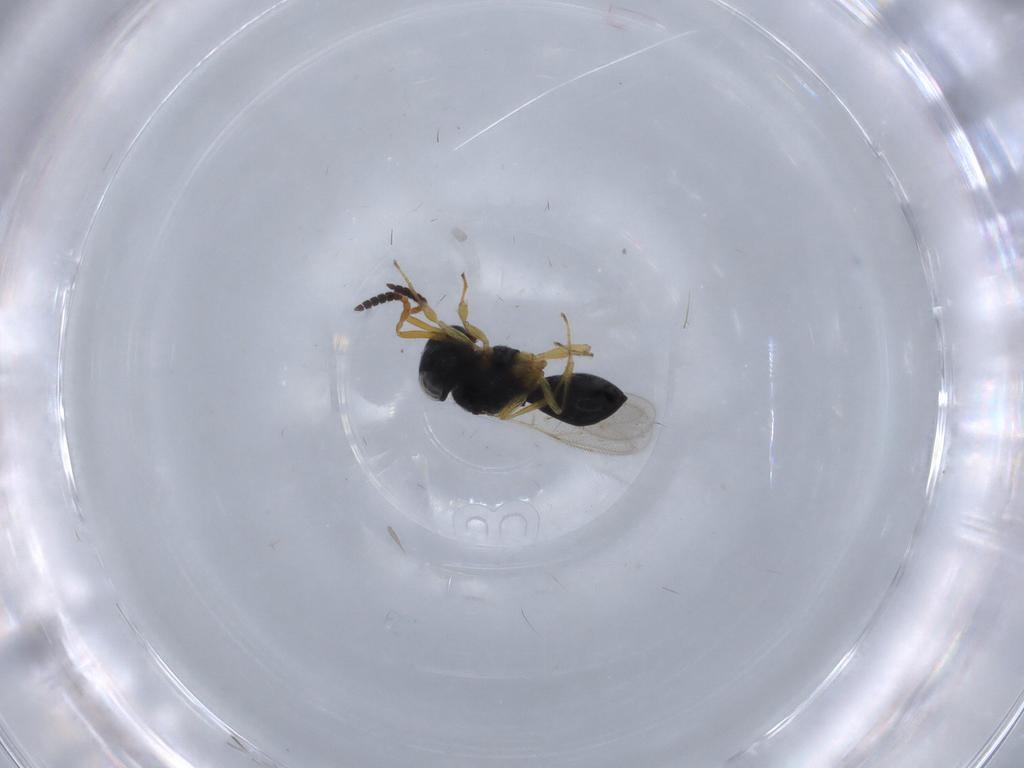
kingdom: Animalia
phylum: Arthropoda
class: Insecta
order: Hymenoptera
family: Scelionidae
